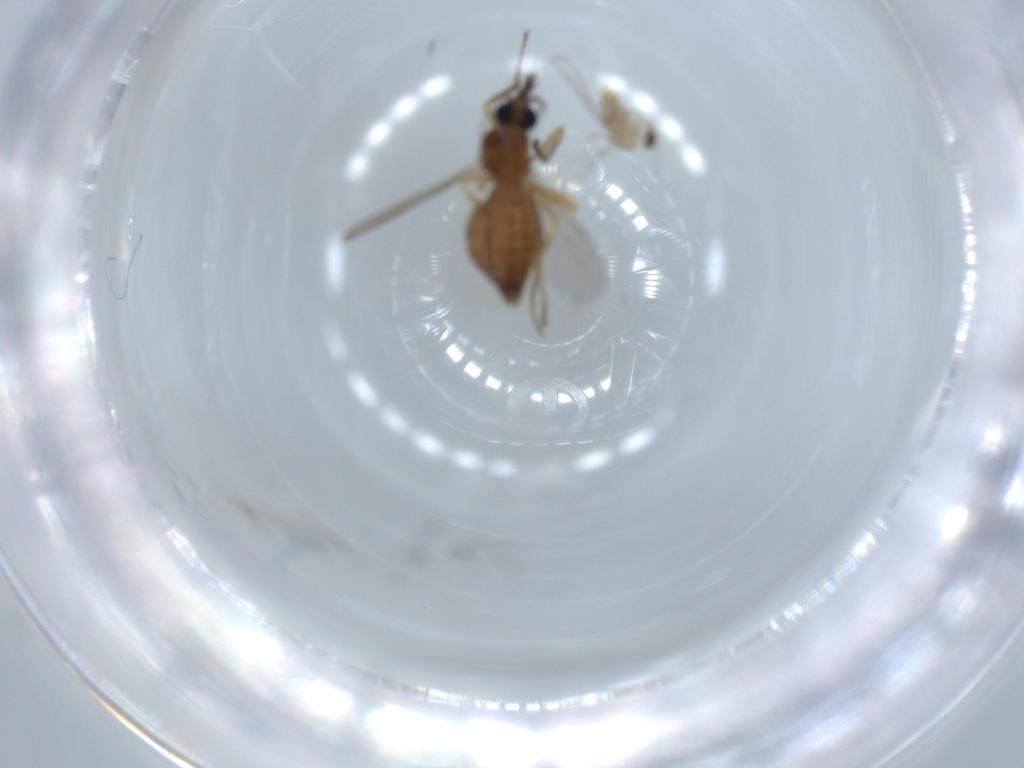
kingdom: Animalia
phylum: Arthropoda
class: Insecta
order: Diptera
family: Ceratopogonidae
